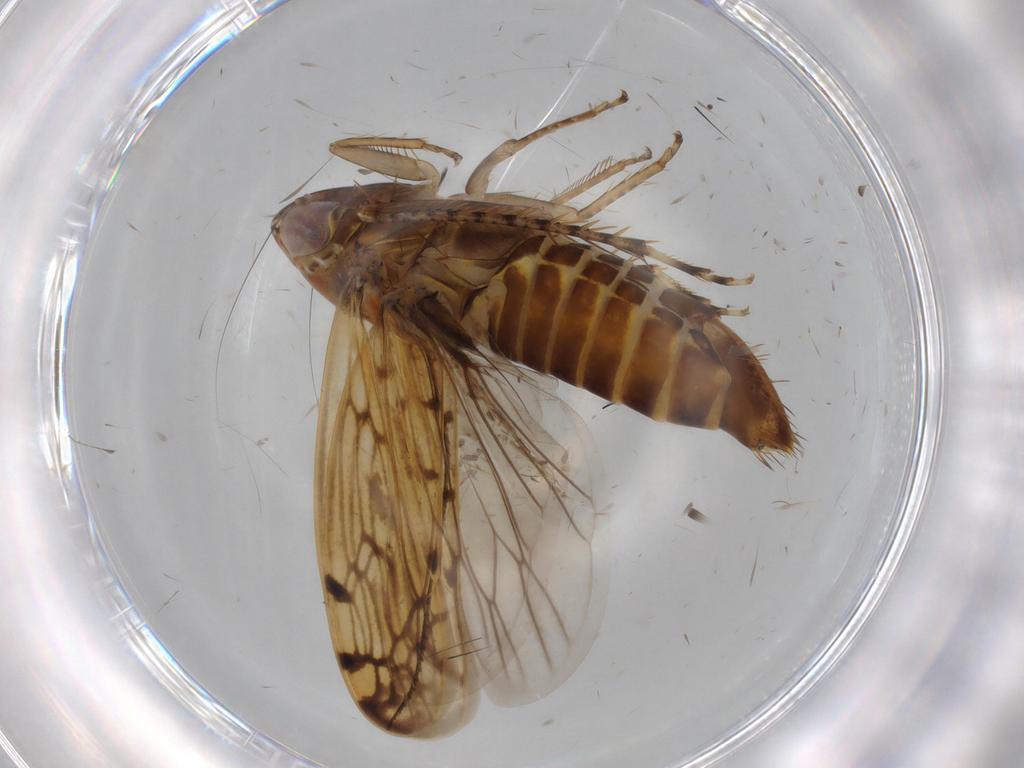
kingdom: Animalia
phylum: Arthropoda
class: Insecta
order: Hemiptera
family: Cicadellidae
